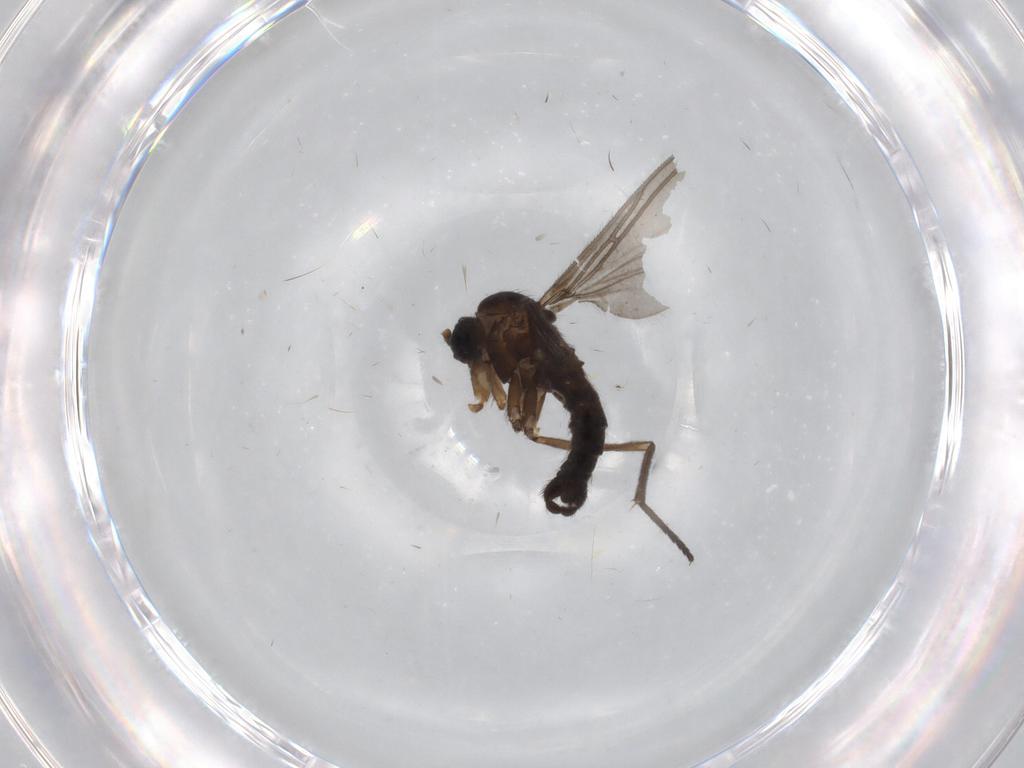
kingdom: Animalia
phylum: Arthropoda
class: Insecta
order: Diptera
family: Ceratopogonidae
